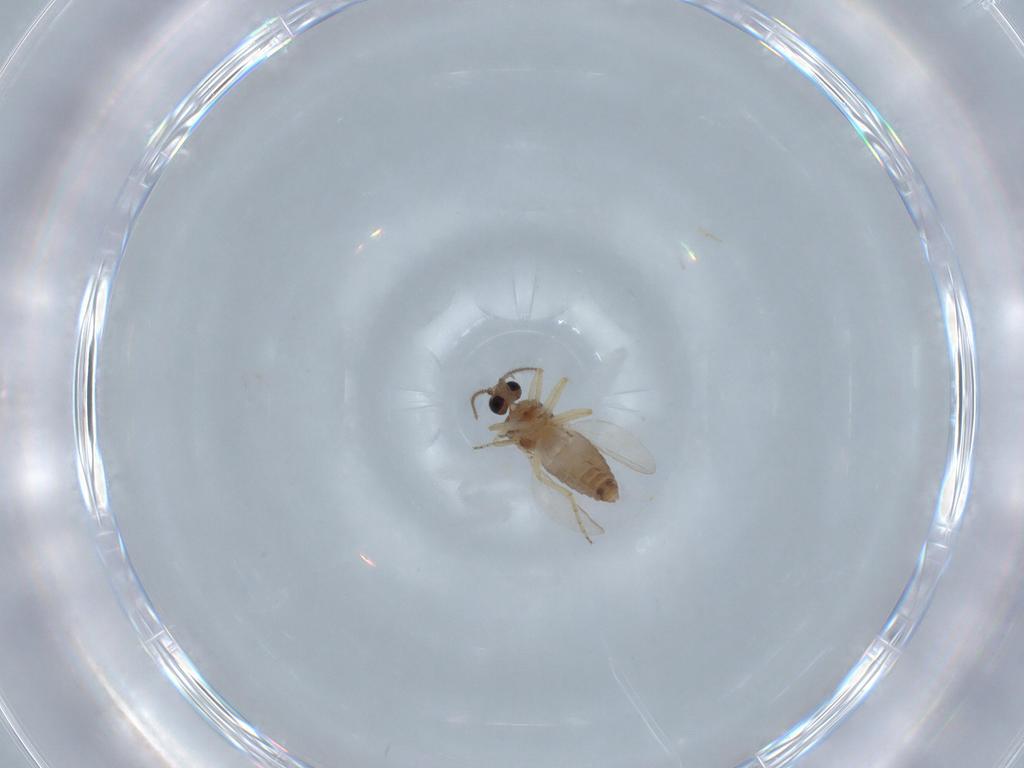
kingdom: Animalia
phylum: Arthropoda
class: Insecta
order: Diptera
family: Ceratopogonidae
